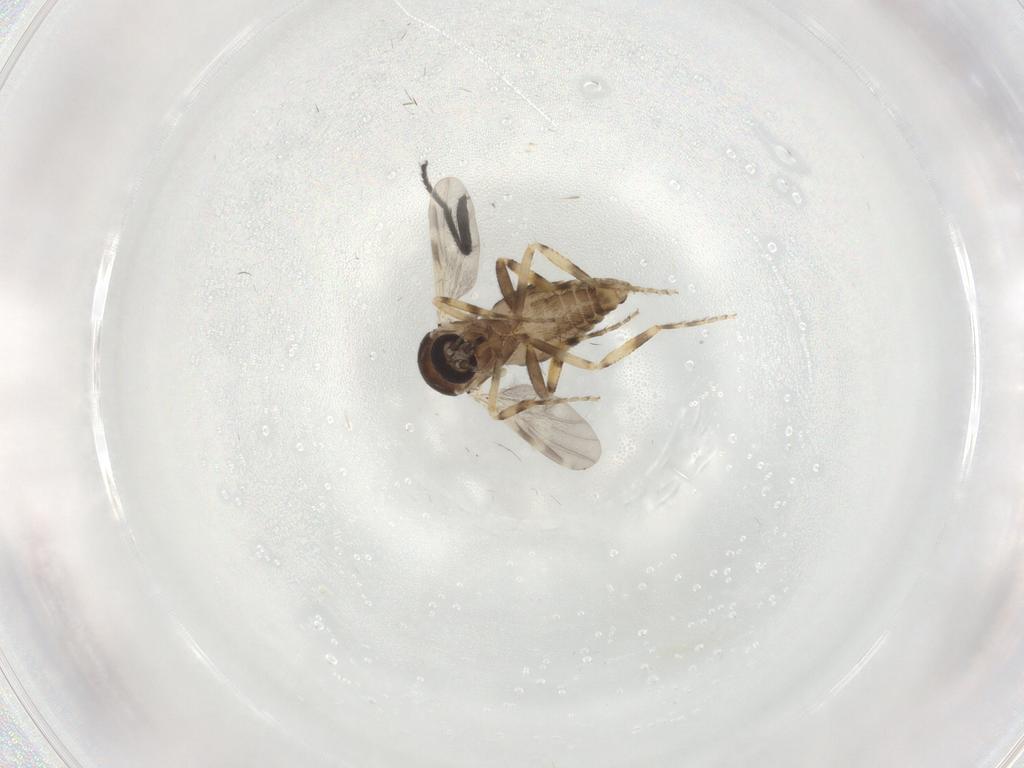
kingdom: Animalia
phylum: Arthropoda
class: Insecta
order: Diptera
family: Ceratopogonidae
